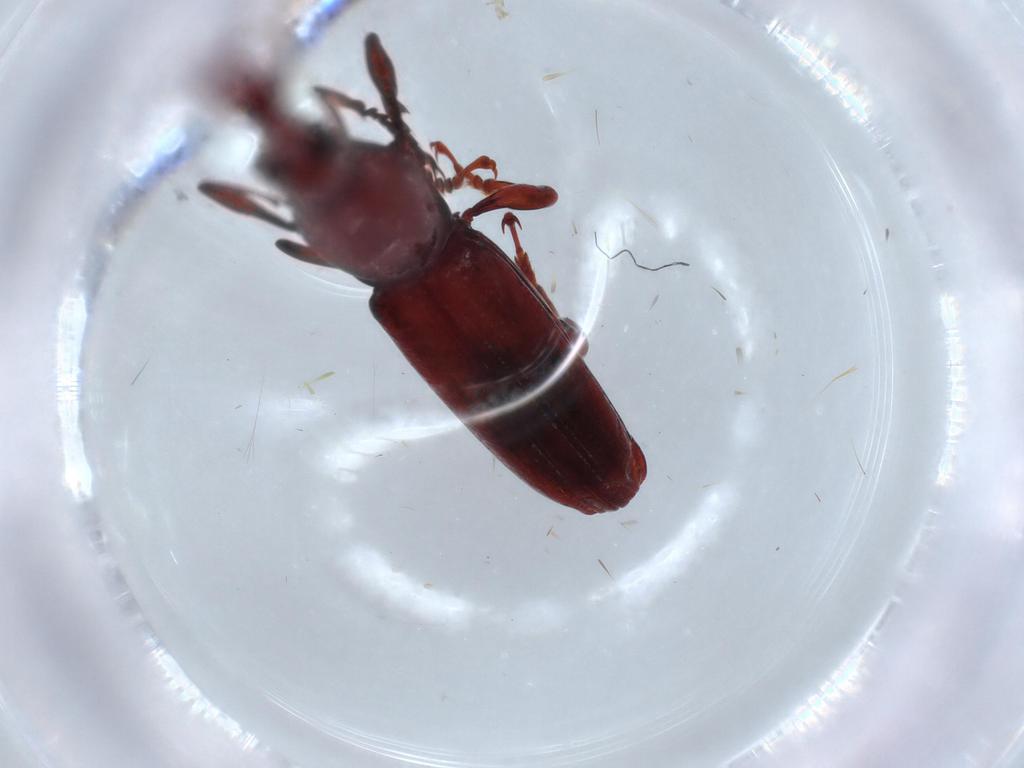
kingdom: Animalia
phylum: Arthropoda
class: Insecta
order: Coleoptera
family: Brentidae
